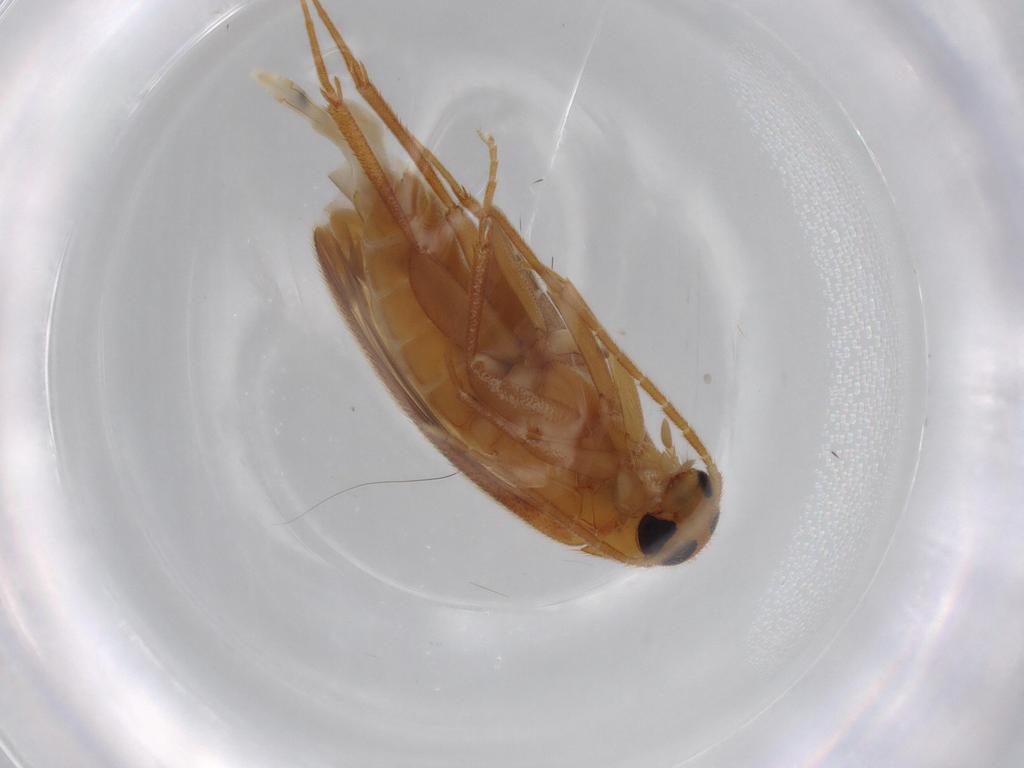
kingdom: Animalia
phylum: Arthropoda
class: Insecta
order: Coleoptera
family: Scraptiidae
